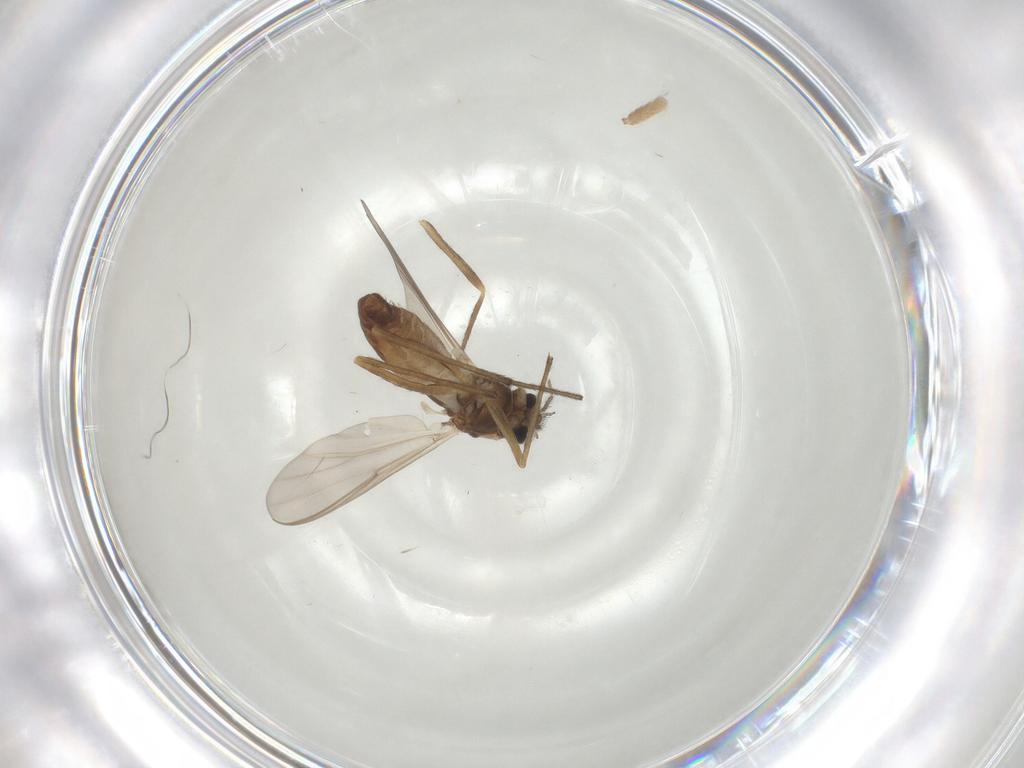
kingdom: Animalia
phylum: Arthropoda
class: Insecta
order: Diptera
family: Chironomidae
